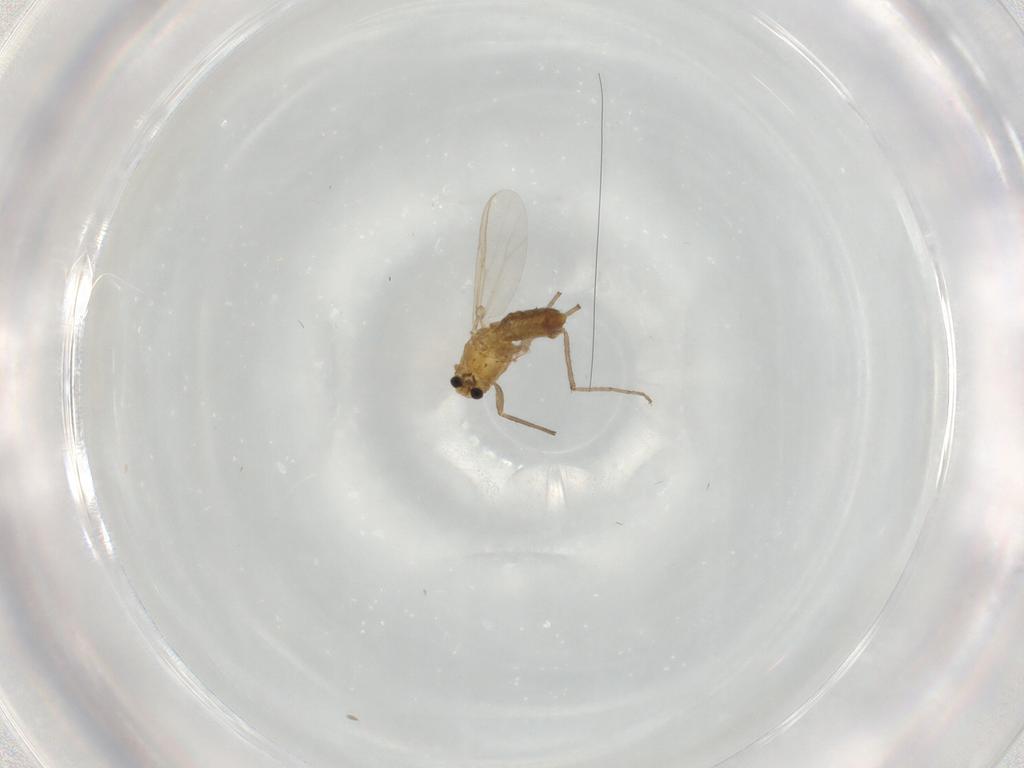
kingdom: Animalia
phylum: Arthropoda
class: Insecta
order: Diptera
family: Chironomidae
